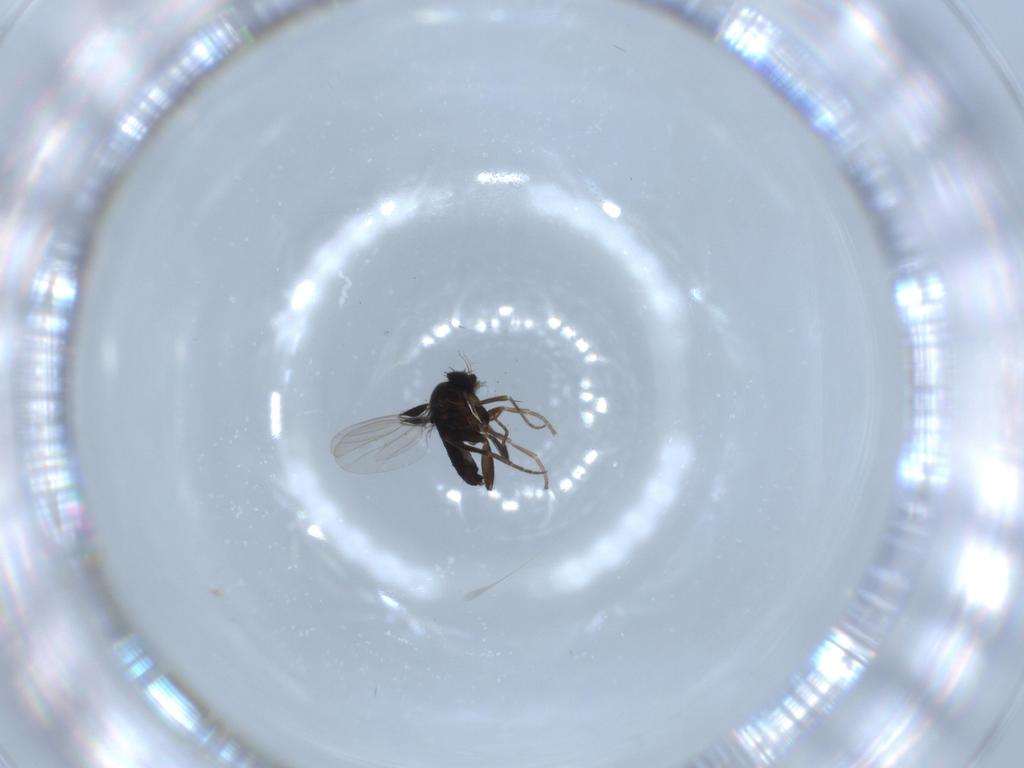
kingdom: Animalia
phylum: Arthropoda
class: Insecta
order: Diptera
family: Phoridae
